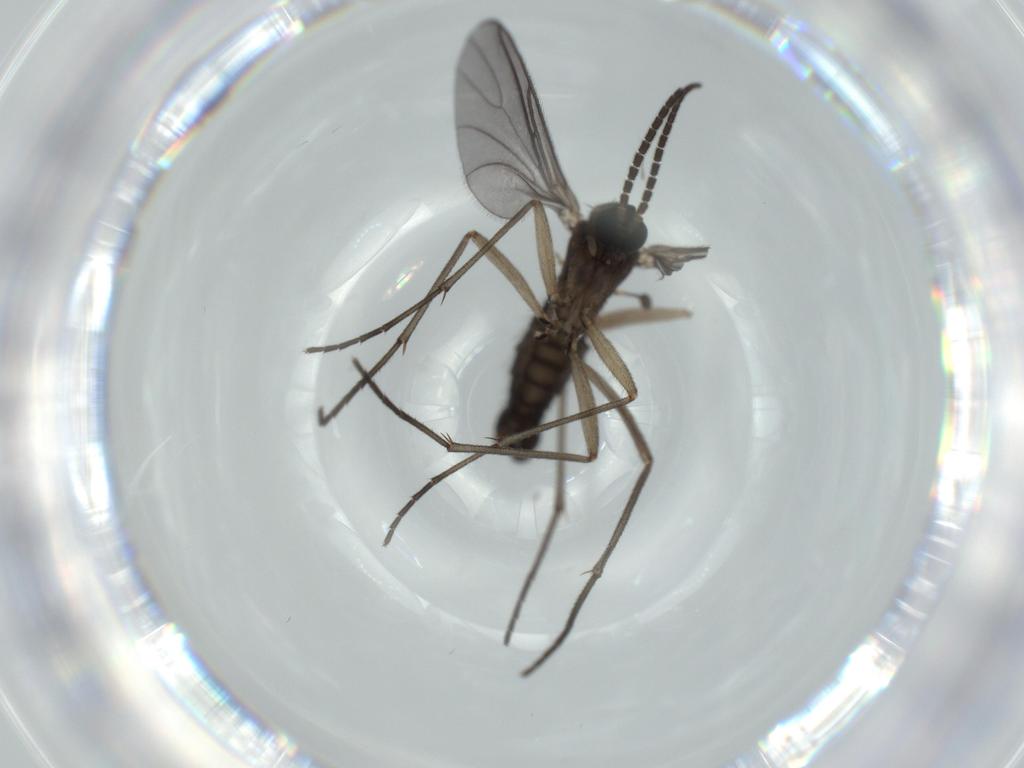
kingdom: Animalia
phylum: Arthropoda
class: Insecta
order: Diptera
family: Sciaridae
